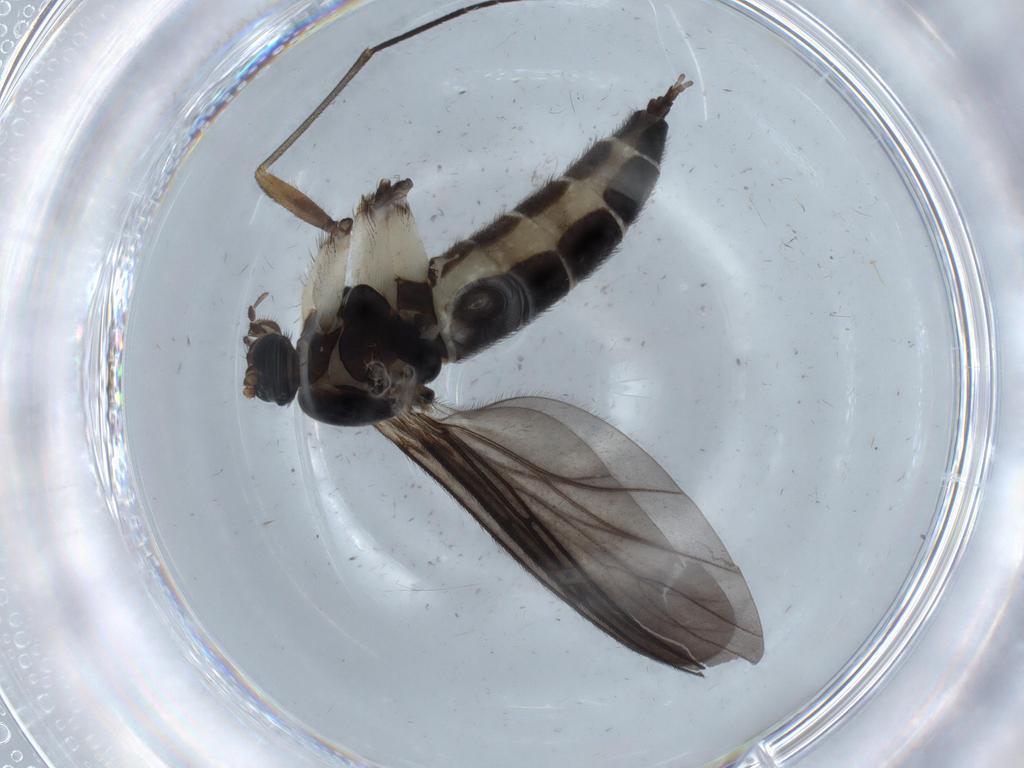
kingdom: Animalia
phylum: Arthropoda
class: Insecta
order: Diptera
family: Sciaridae
